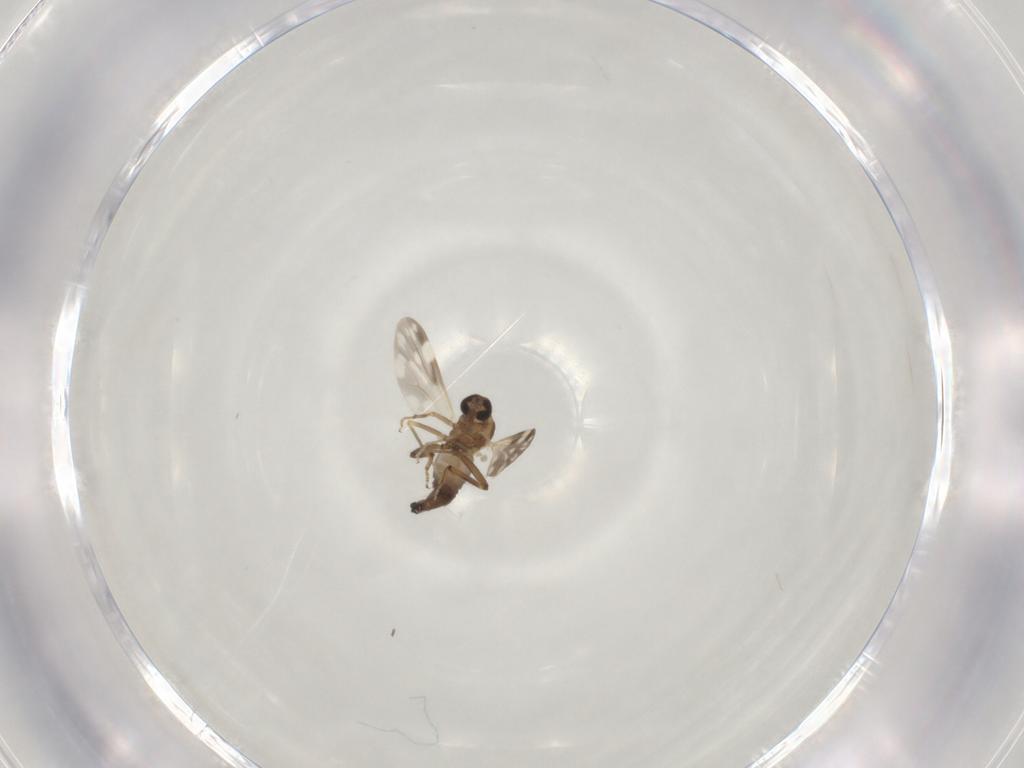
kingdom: Animalia
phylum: Arthropoda
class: Insecta
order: Diptera
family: Ceratopogonidae
